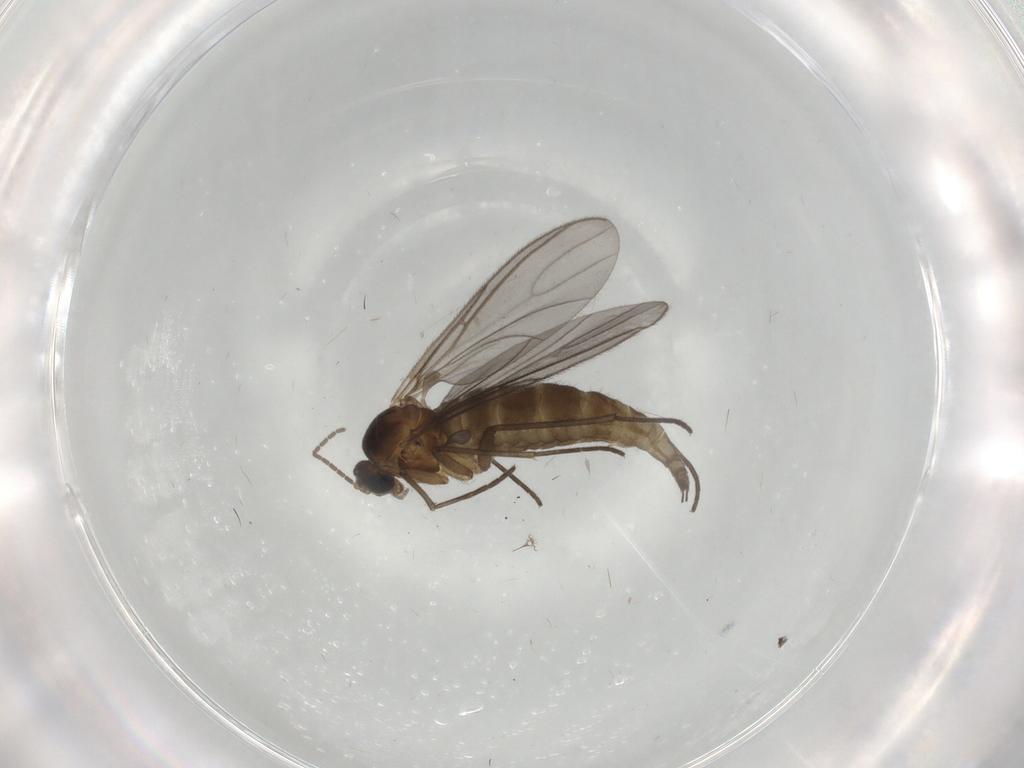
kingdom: Animalia
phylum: Arthropoda
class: Insecta
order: Diptera
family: Chironomidae
